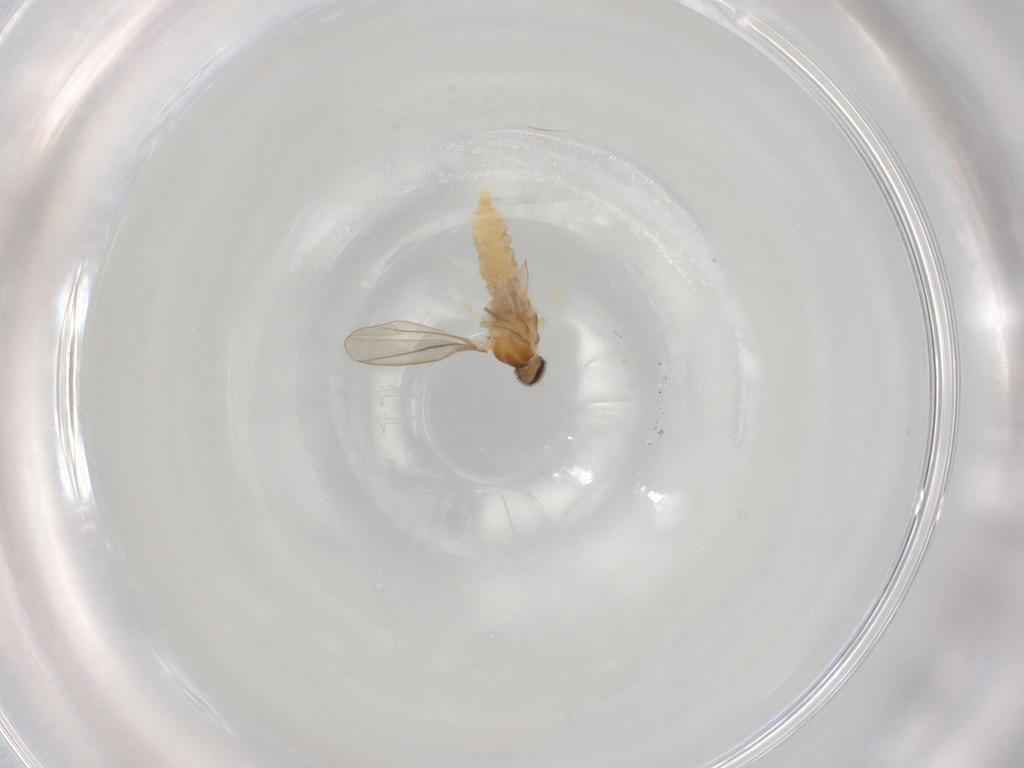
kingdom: Animalia
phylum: Arthropoda
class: Insecta
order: Diptera
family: Cecidomyiidae
